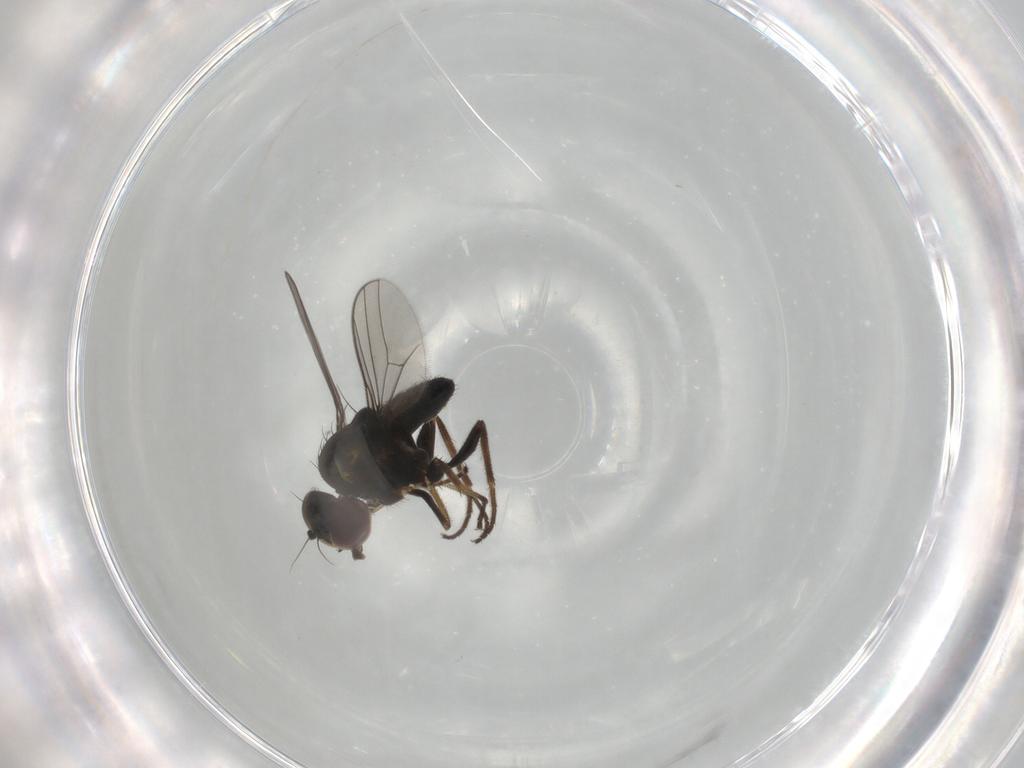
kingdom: Animalia
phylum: Arthropoda
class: Insecta
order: Diptera
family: Dolichopodidae
